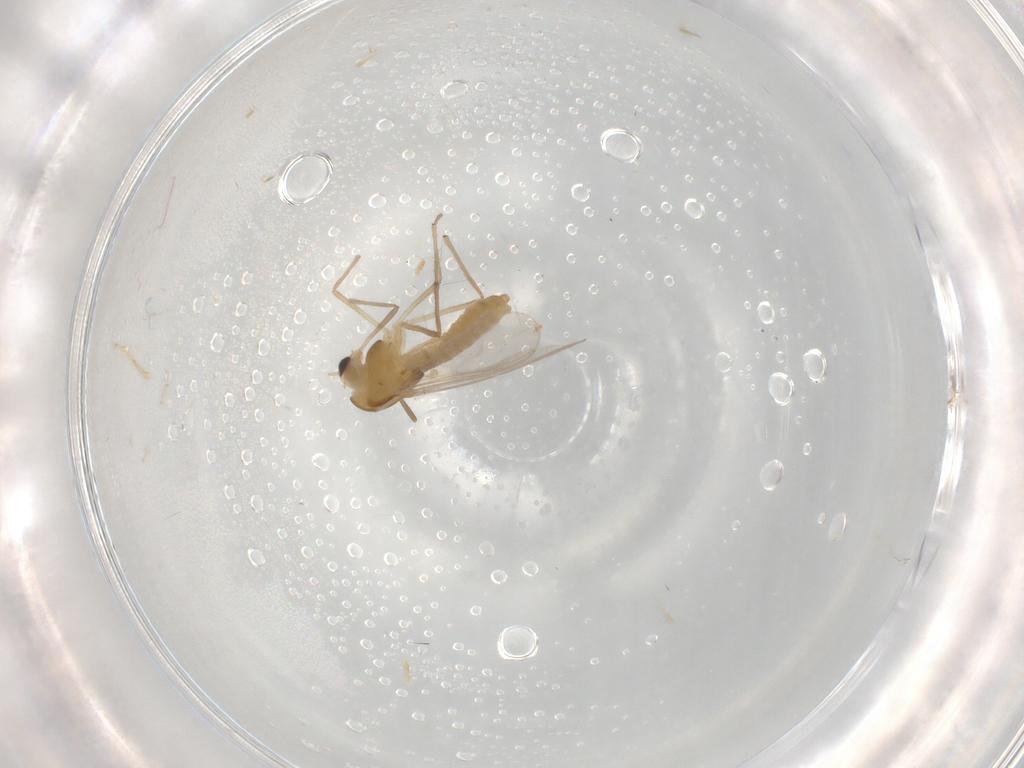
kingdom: Animalia
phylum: Arthropoda
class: Insecta
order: Diptera
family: Chironomidae
